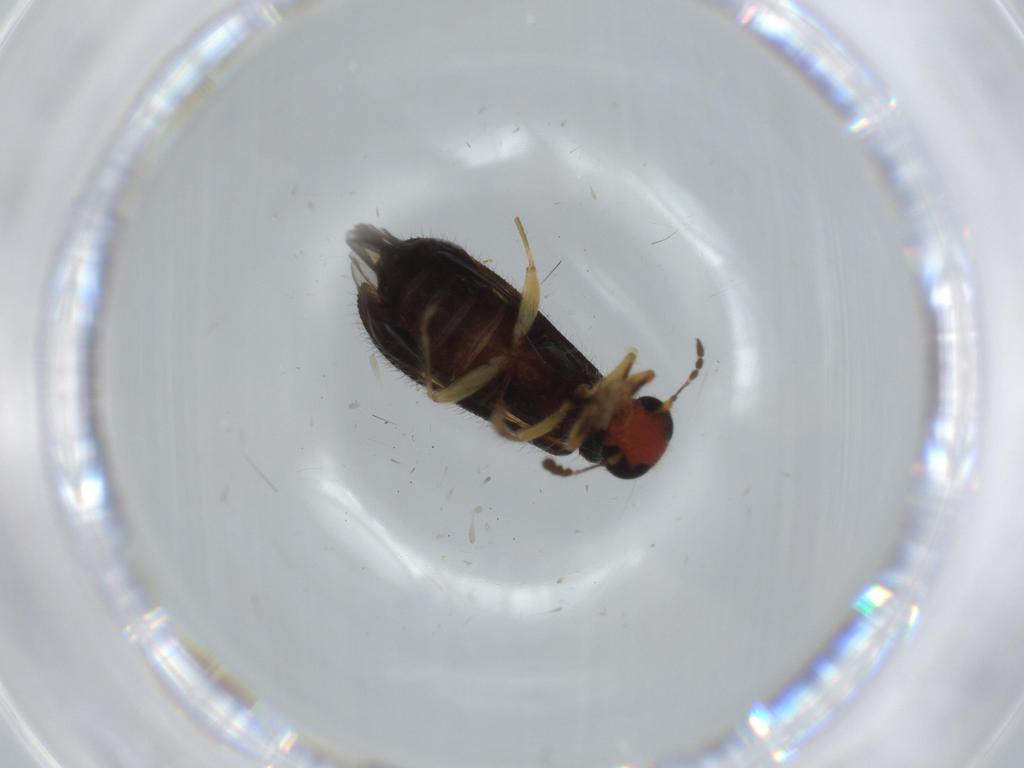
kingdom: Animalia
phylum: Arthropoda
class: Insecta
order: Coleoptera
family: Cleridae
